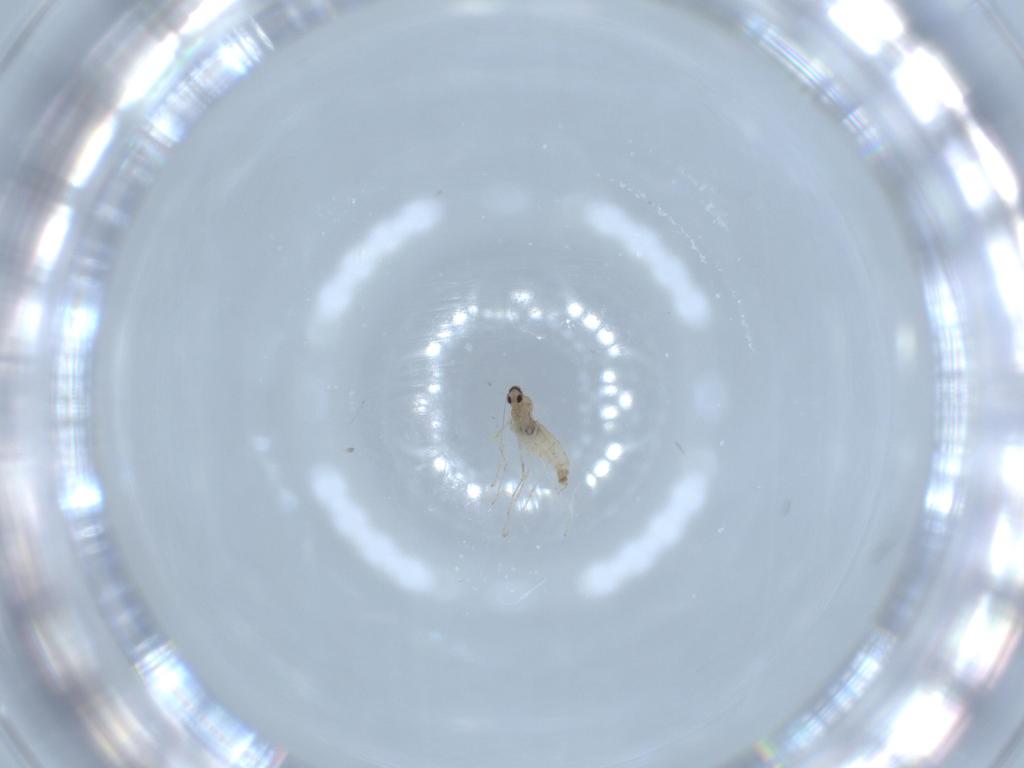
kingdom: Animalia
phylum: Arthropoda
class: Insecta
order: Diptera
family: Cecidomyiidae
